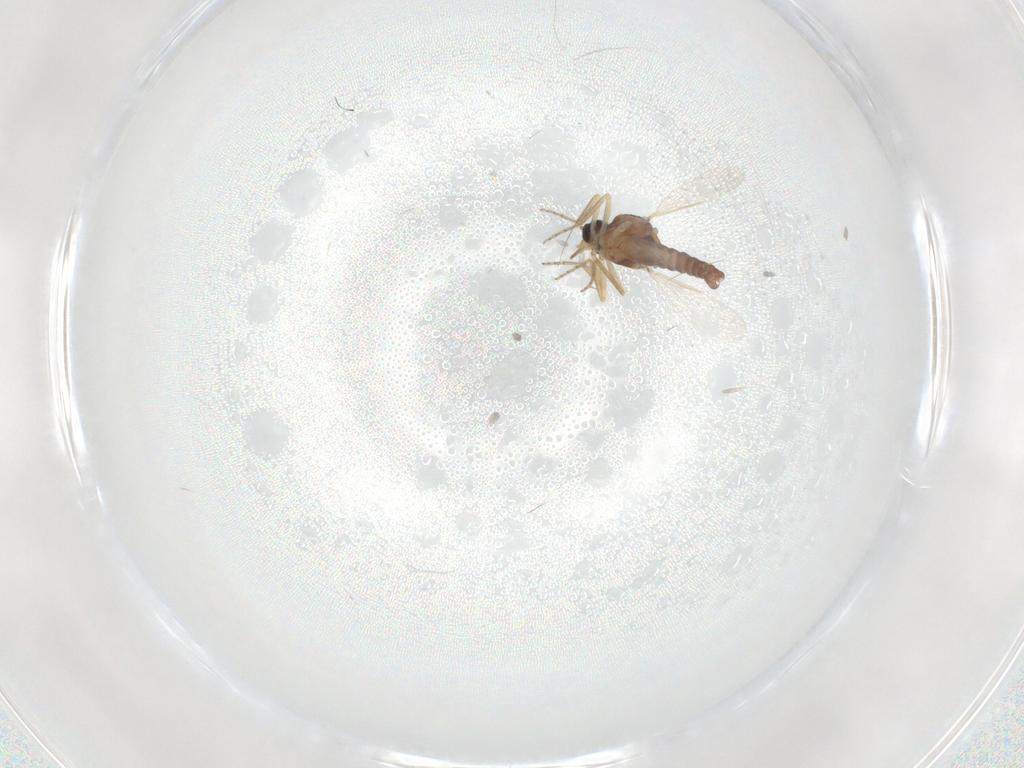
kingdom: Animalia
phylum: Arthropoda
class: Insecta
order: Diptera
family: Ceratopogonidae
